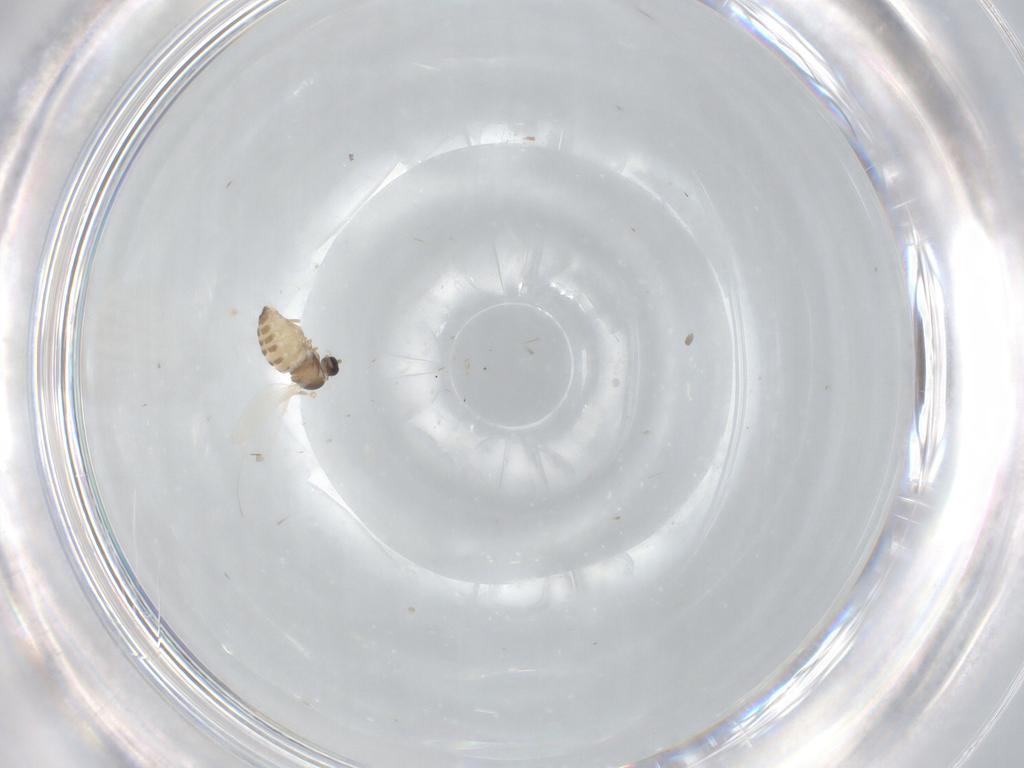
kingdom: Animalia
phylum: Arthropoda
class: Insecta
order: Diptera
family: Cecidomyiidae
